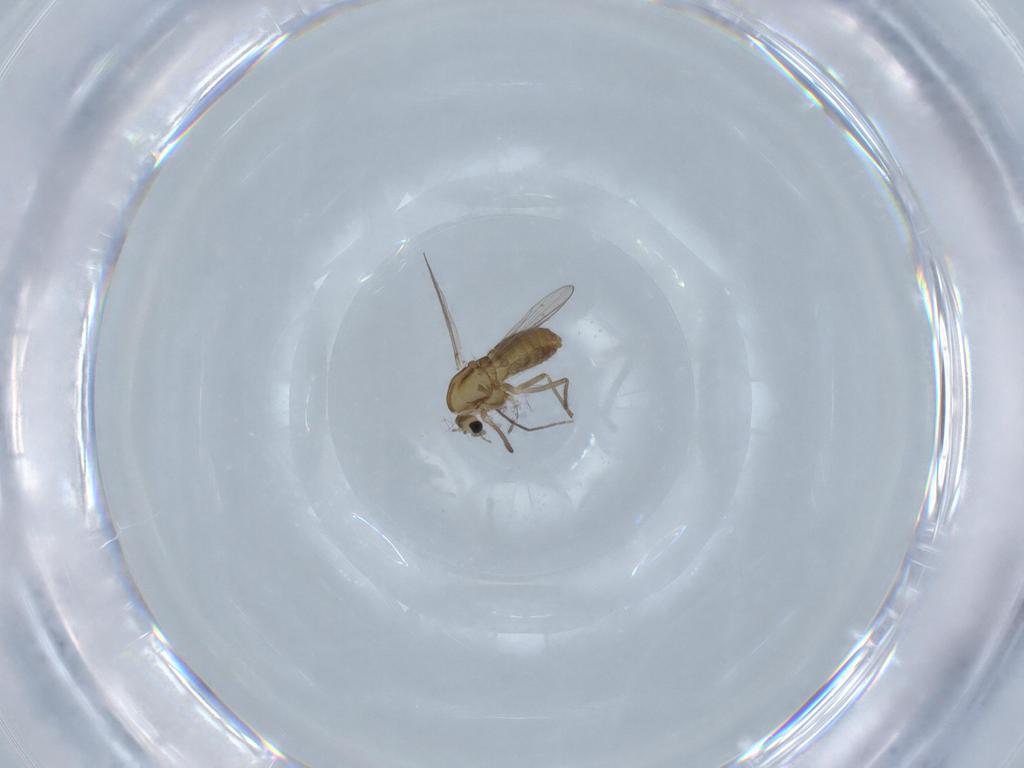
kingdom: Animalia
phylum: Arthropoda
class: Insecta
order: Diptera
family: Chironomidae
